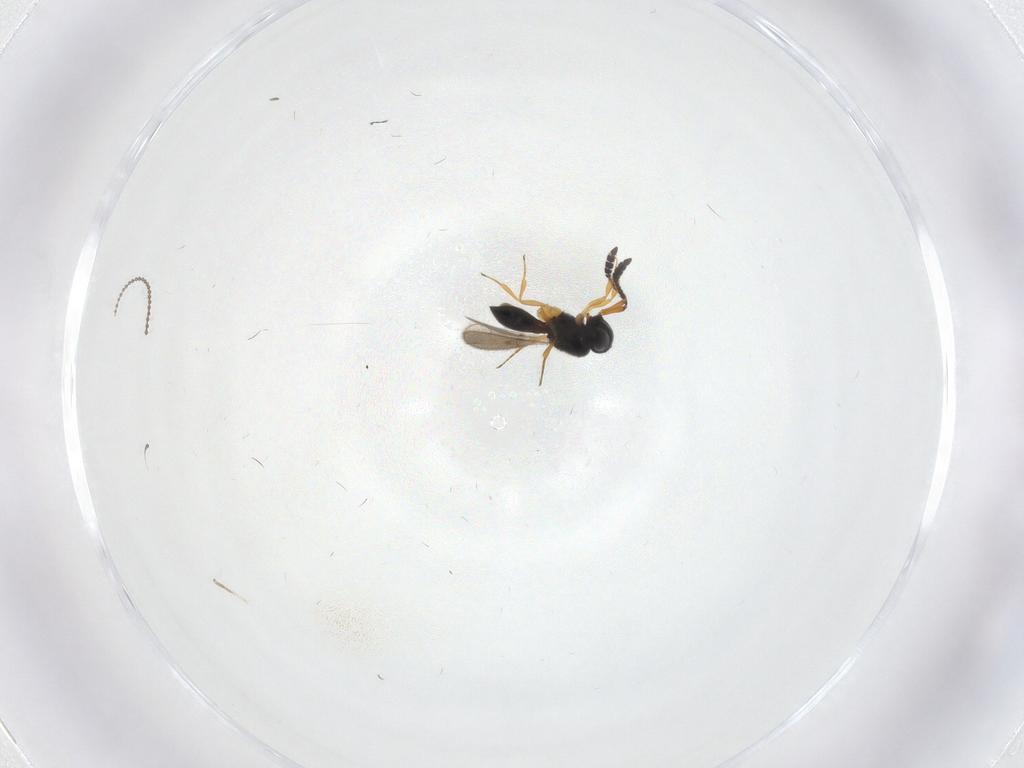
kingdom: Animalia
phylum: Arthropoda
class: Insecta
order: Hymenoptera
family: Scelionidae
